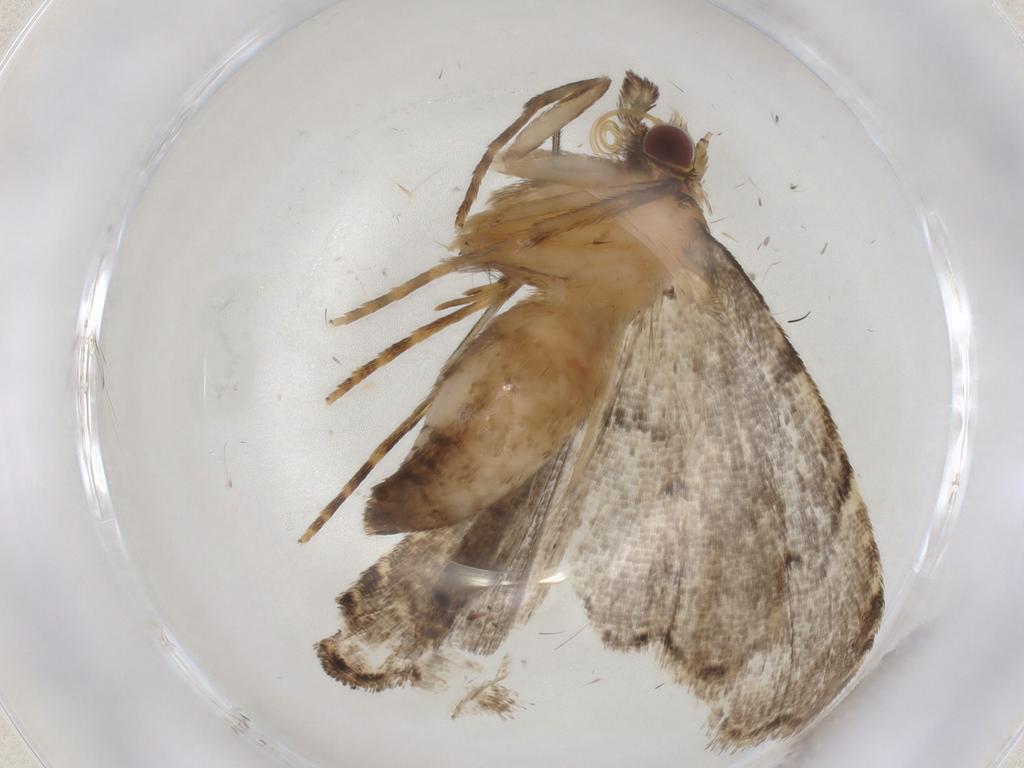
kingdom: Animalia
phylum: Arthropoda
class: Insecta
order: Lepidoptera
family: Erebidae
